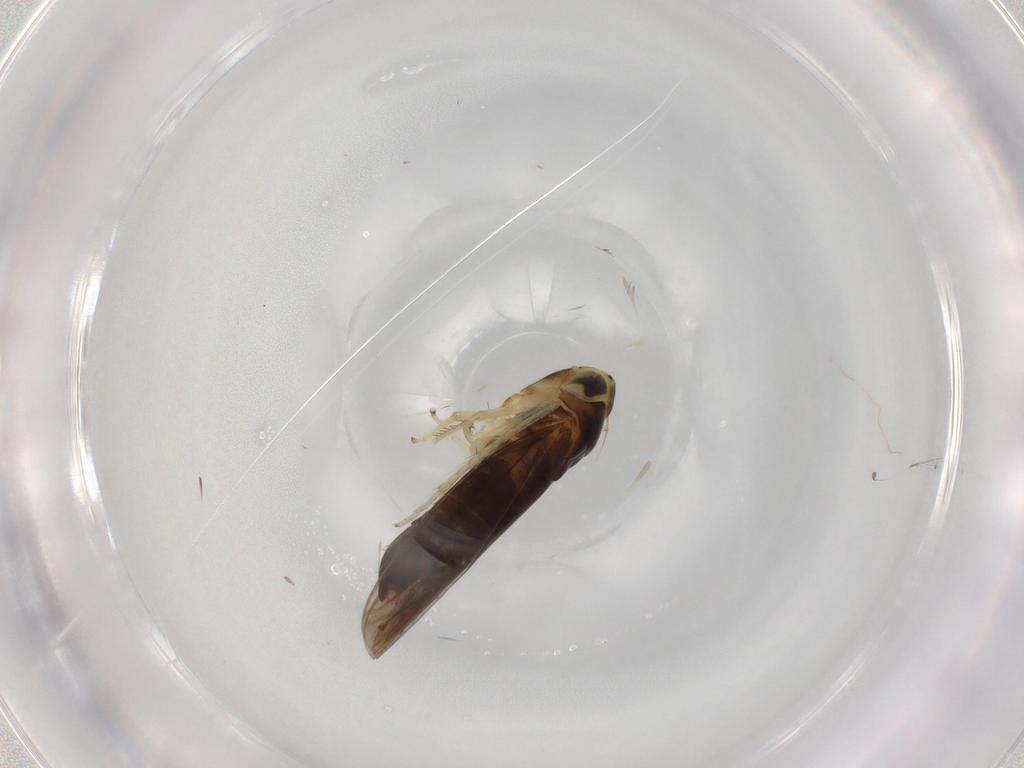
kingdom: Animalia
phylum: Arthropoda
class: Insecta
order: Hemiptera
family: Cicadellidae
